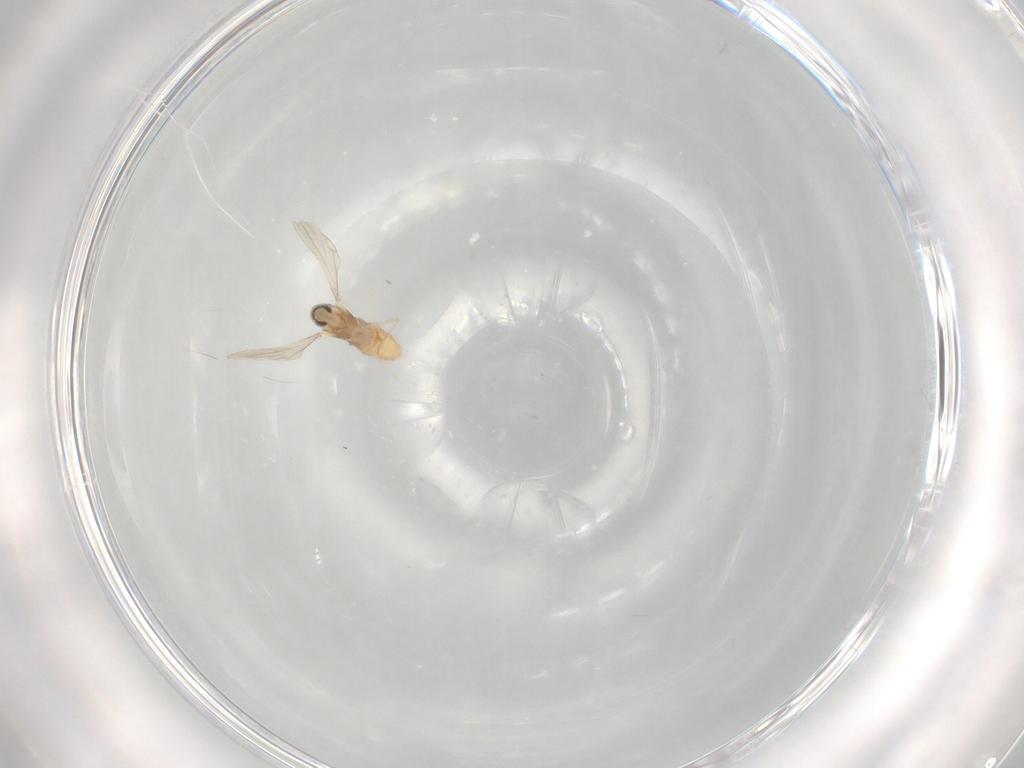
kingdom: Animalia
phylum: Arthropoda
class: Insecta
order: Diptera
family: Cecidomyiidae
